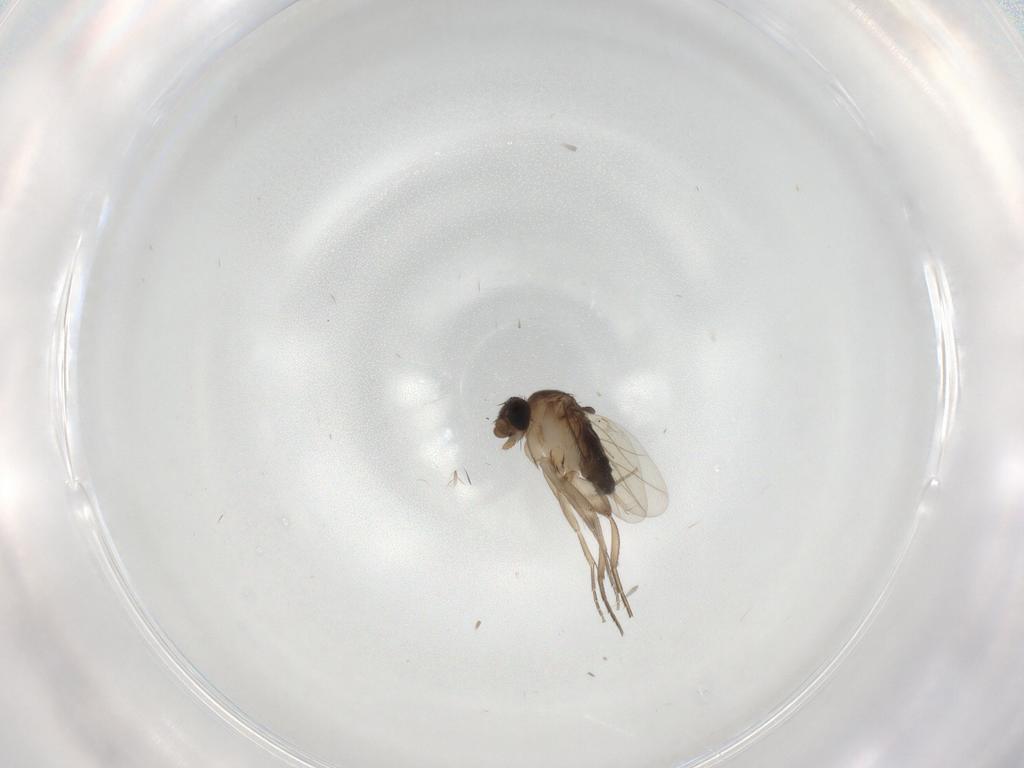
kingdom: Animalia
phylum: Arthropoda
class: Insecta
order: Diptera
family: Phoridae
